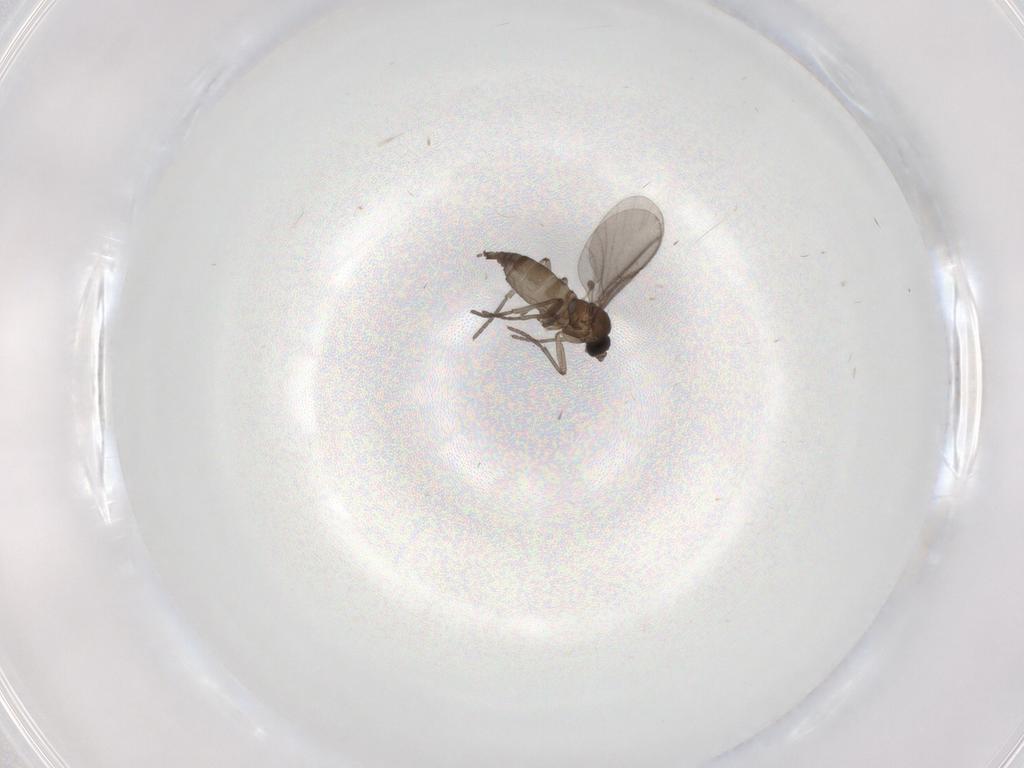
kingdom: Animalia
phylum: Arthropoda
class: Insecta
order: Diptera
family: Sciaridae
